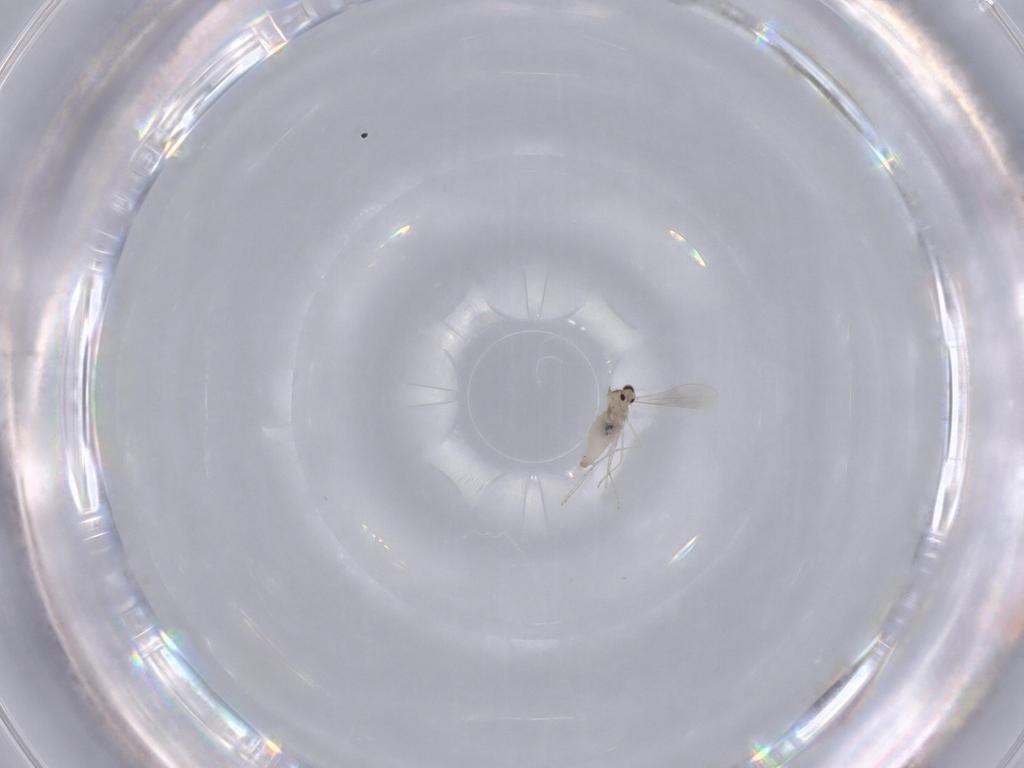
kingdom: Animalia
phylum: Arthropoda
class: Insecta
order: Diptera
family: Cecidomyiidae
